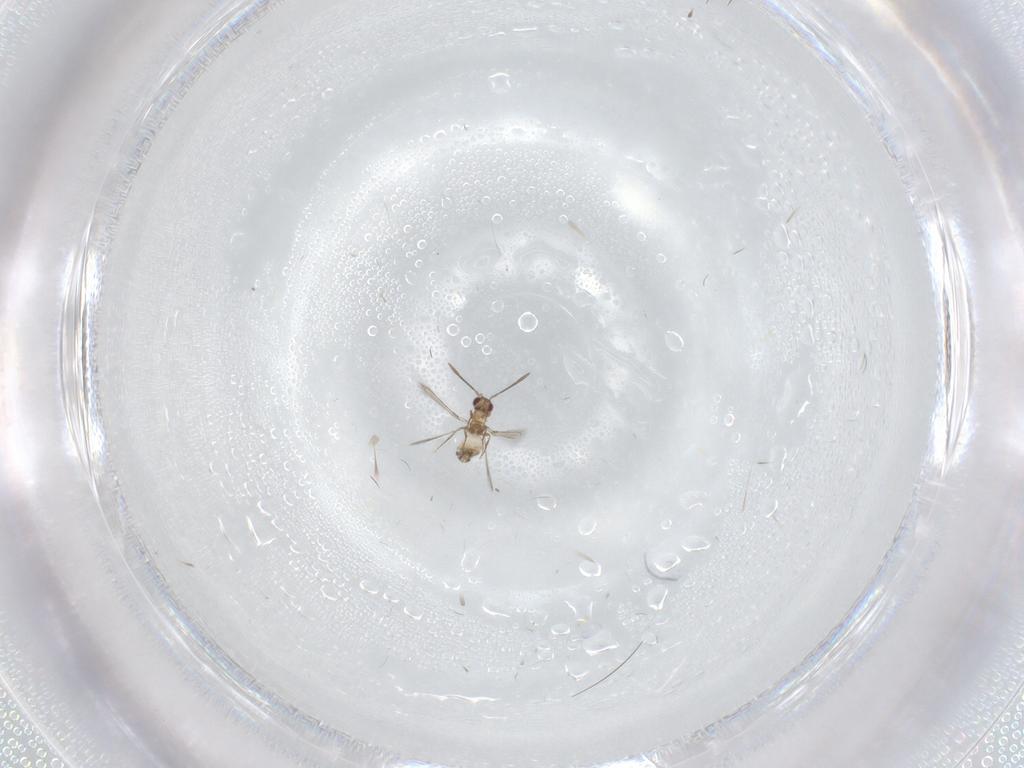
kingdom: Animalia
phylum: Arthropoda
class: Insecta
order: Hymenoptera
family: Mymaridae
